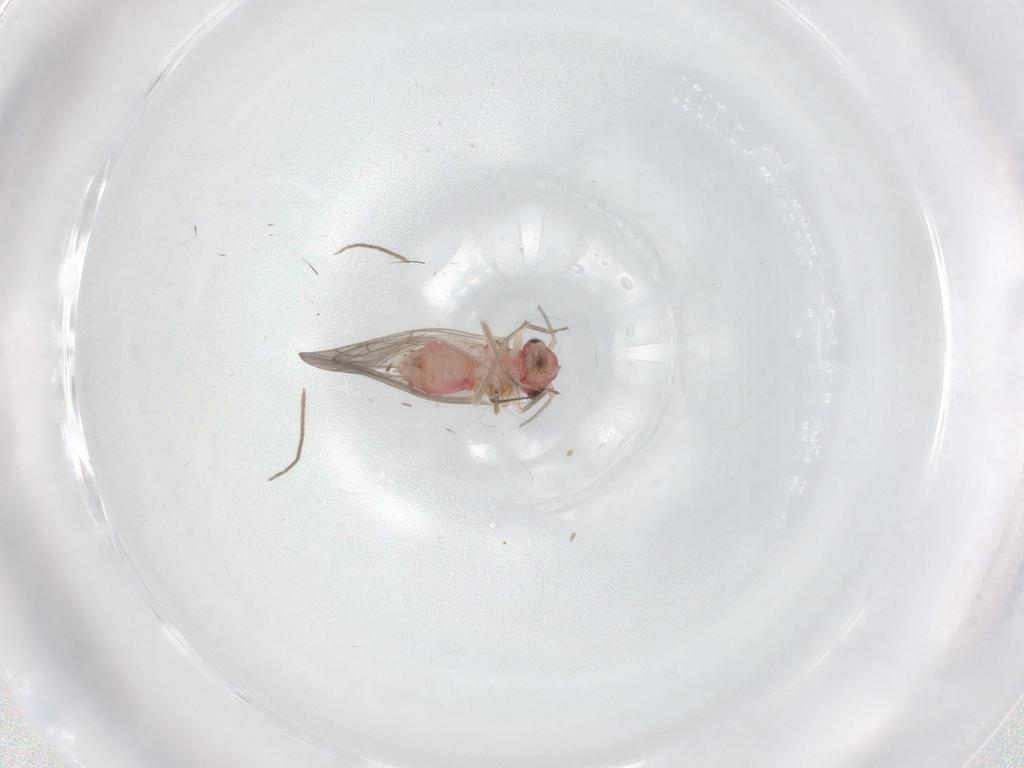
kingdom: Animalia
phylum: Arthropoda
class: Insecta
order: Psocodea
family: Lachesillidae
